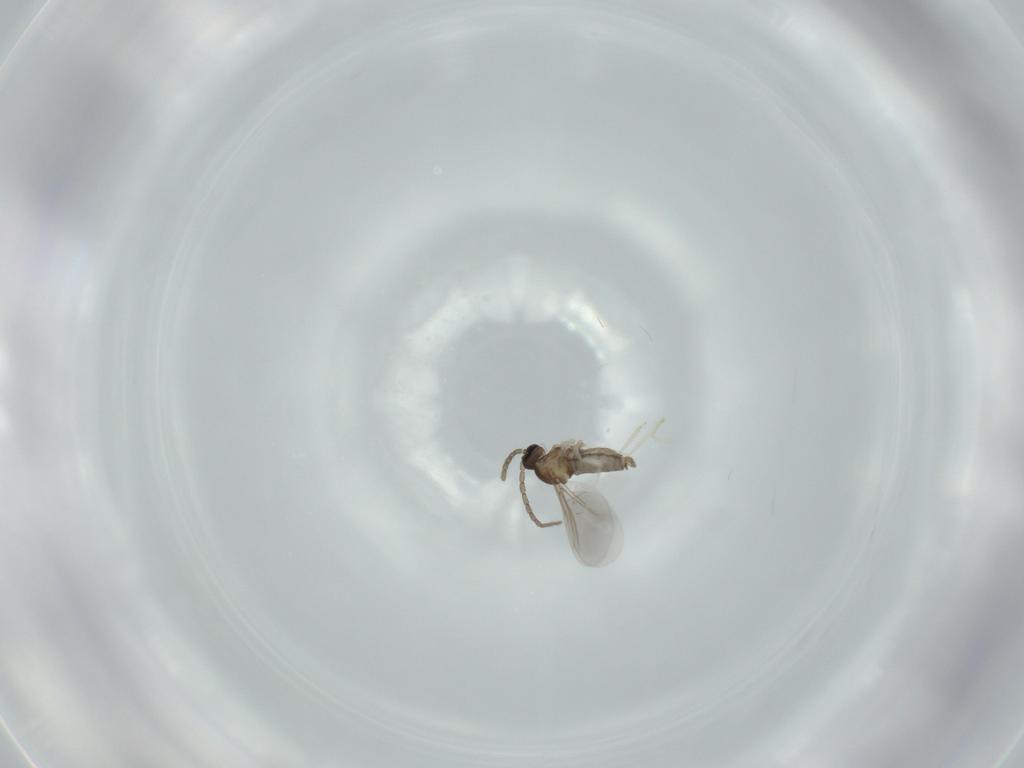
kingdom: Animalia
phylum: Arthropoda
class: Insecta
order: Diptera
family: Cecidomyiidae
